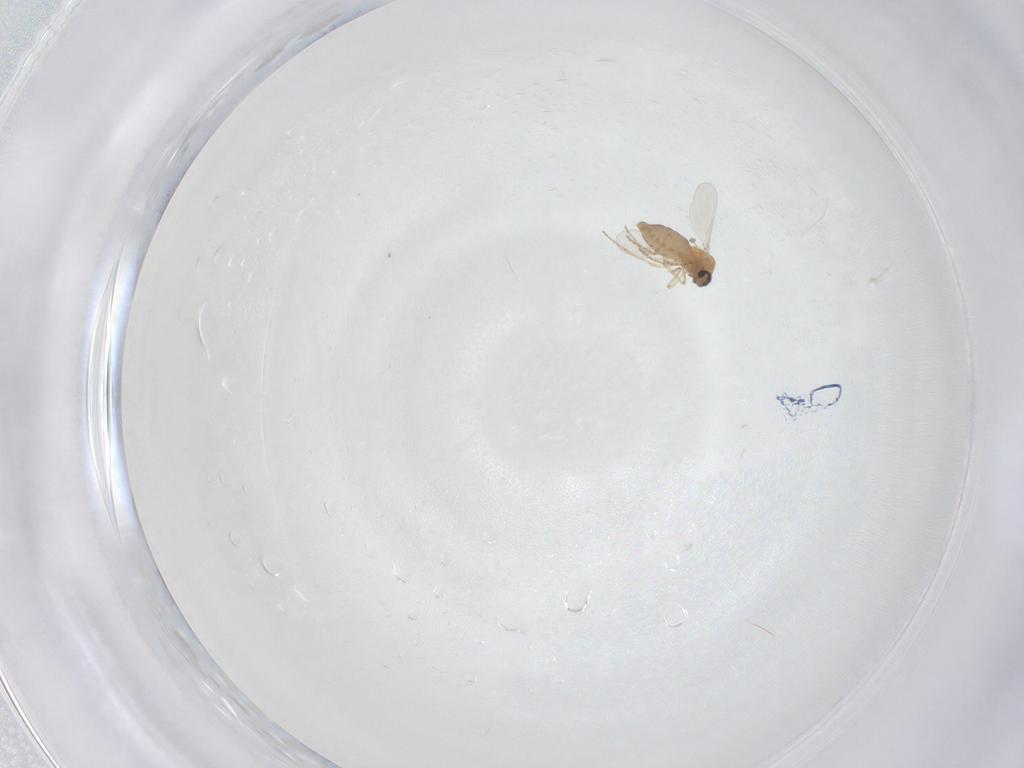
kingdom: Animalia
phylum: Arthropoda
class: Insecta
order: Diptera
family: Ceratopogonidae
